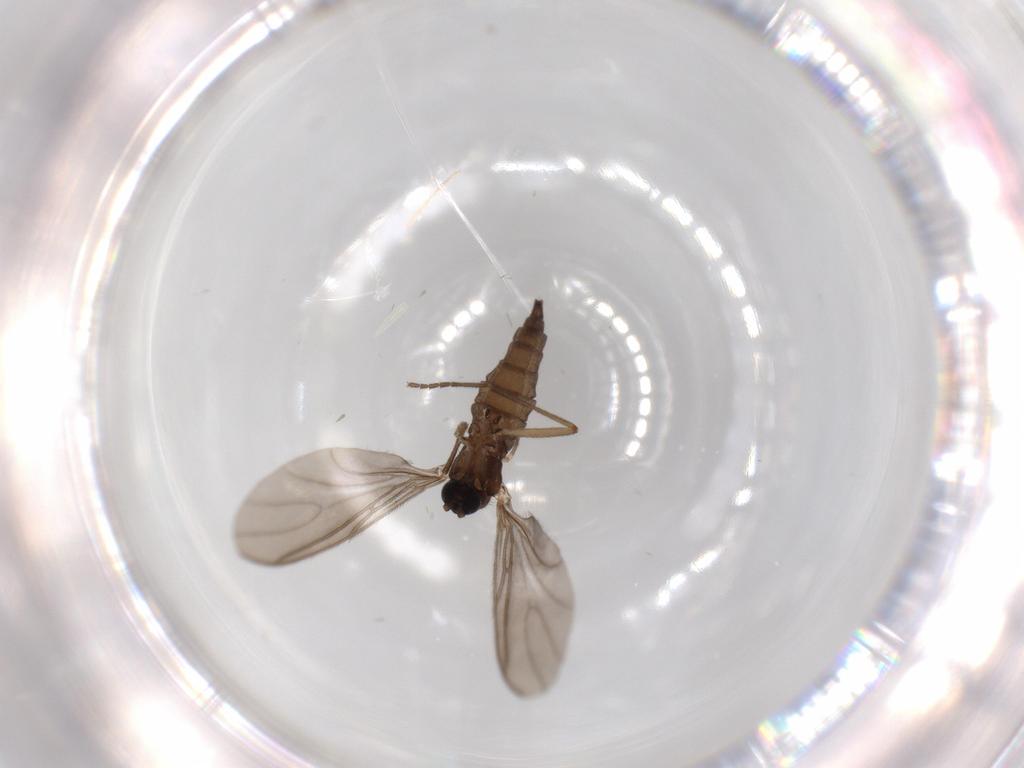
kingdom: Animalia
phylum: Arthropoda
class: Insecta
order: Diptera
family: Sciaridae
